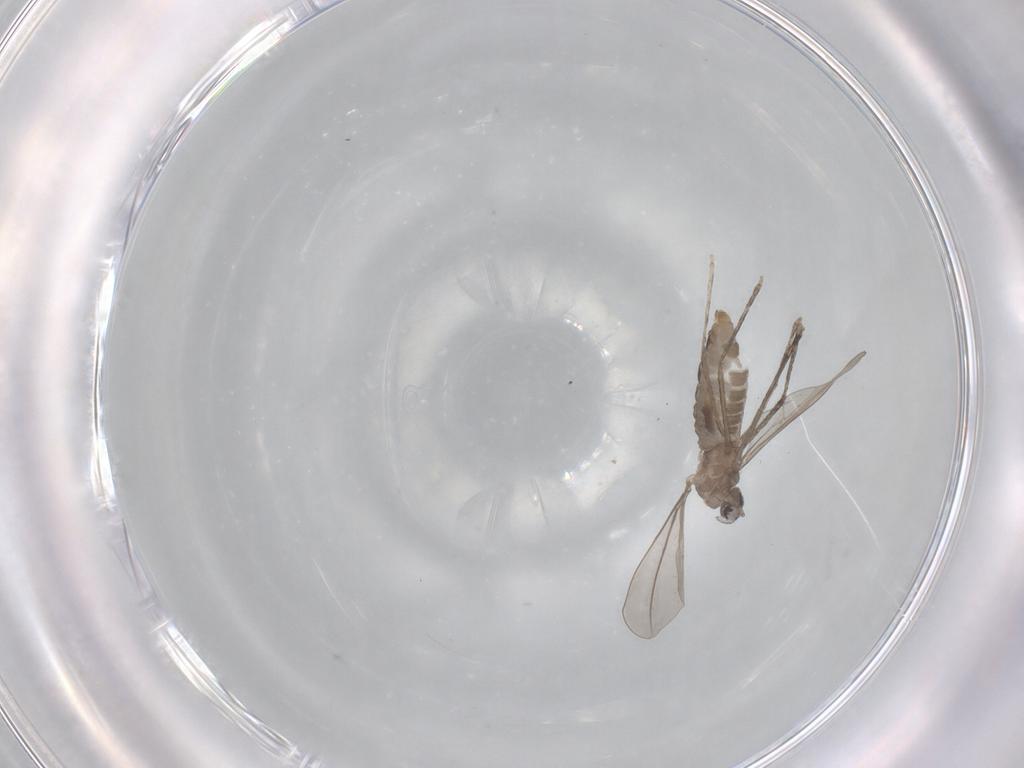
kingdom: Animalia
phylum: Arthropoda
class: Insecta
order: Diptera
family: Cecidomyiidae
